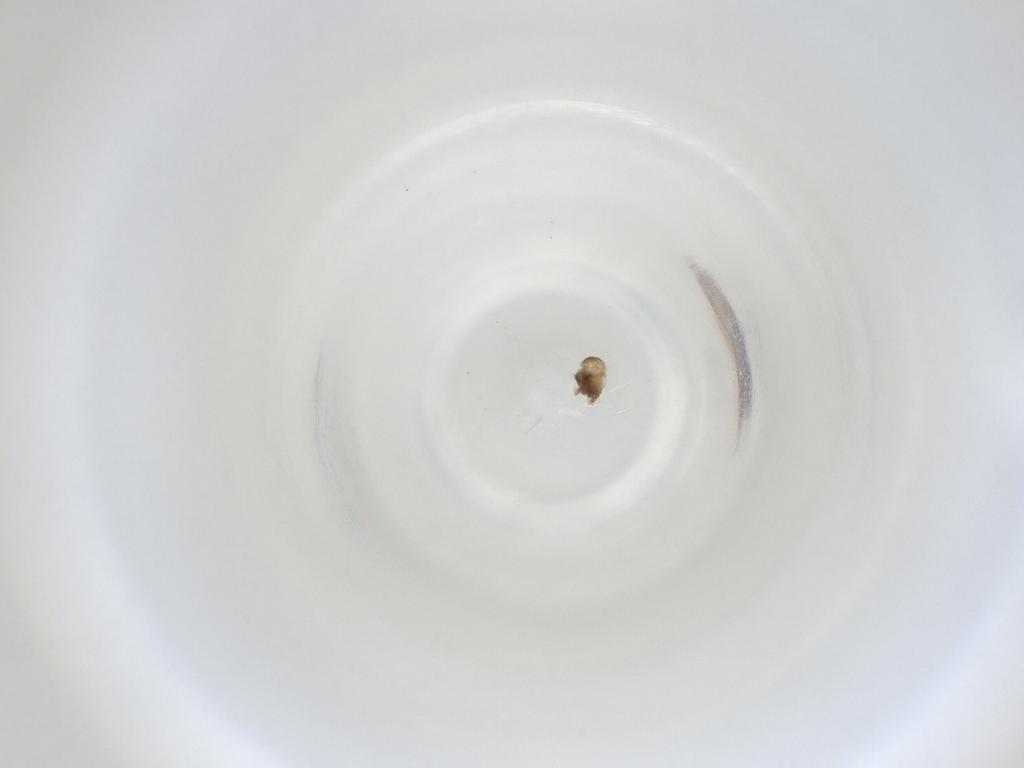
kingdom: Animalia
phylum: Arthropoda
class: Insecta
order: Diptera
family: Cecidomyiidae
